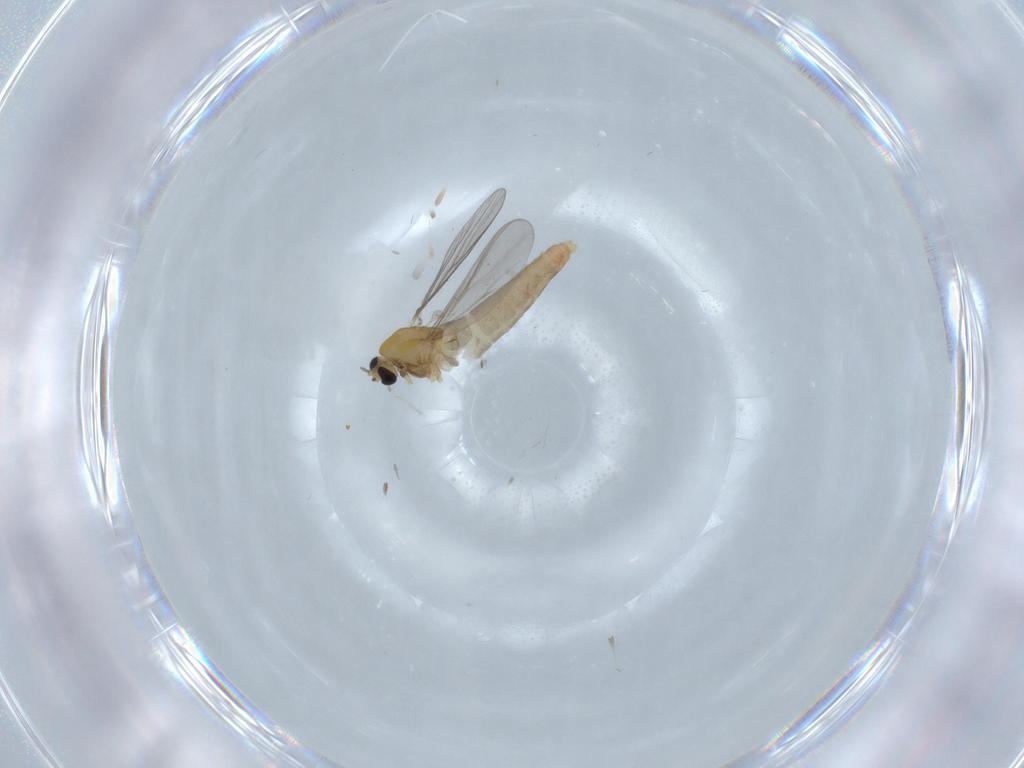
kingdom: Animalia
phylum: Arthropoda
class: Insecta
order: Diptera
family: Chironomidae
